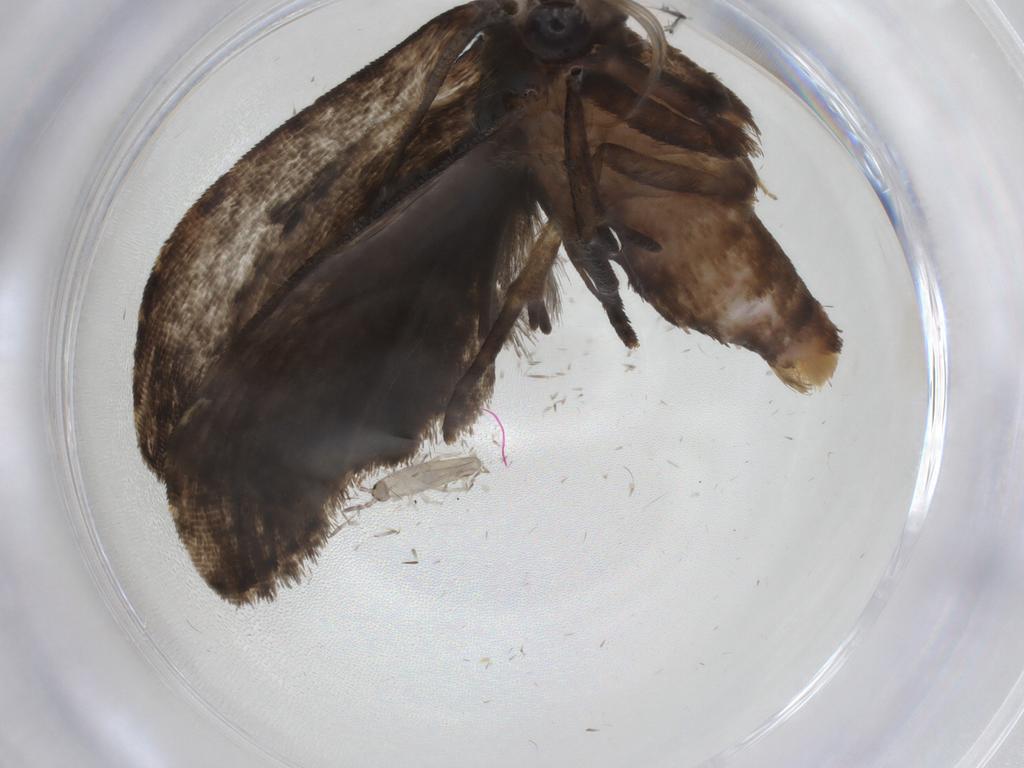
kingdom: Animalia
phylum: Arthropoda
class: Insecta
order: Lepidoptera
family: Noctuidae
